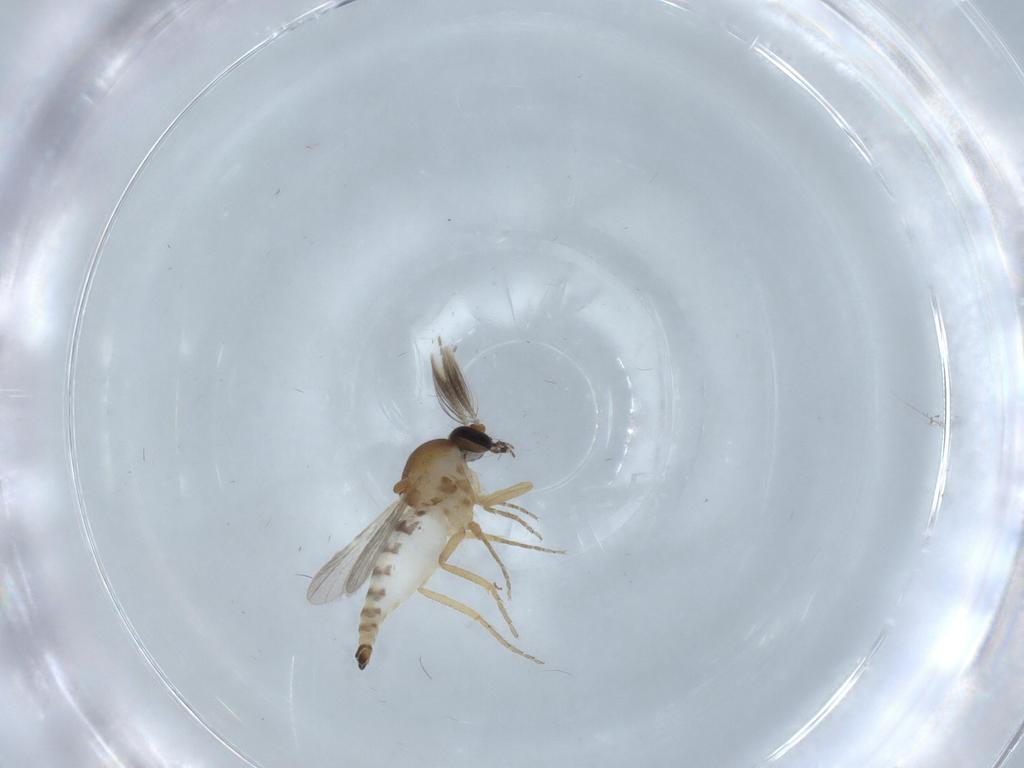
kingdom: Animalia
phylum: Arthropoda
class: Insecta
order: Diptera
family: Ceratopogonidae
